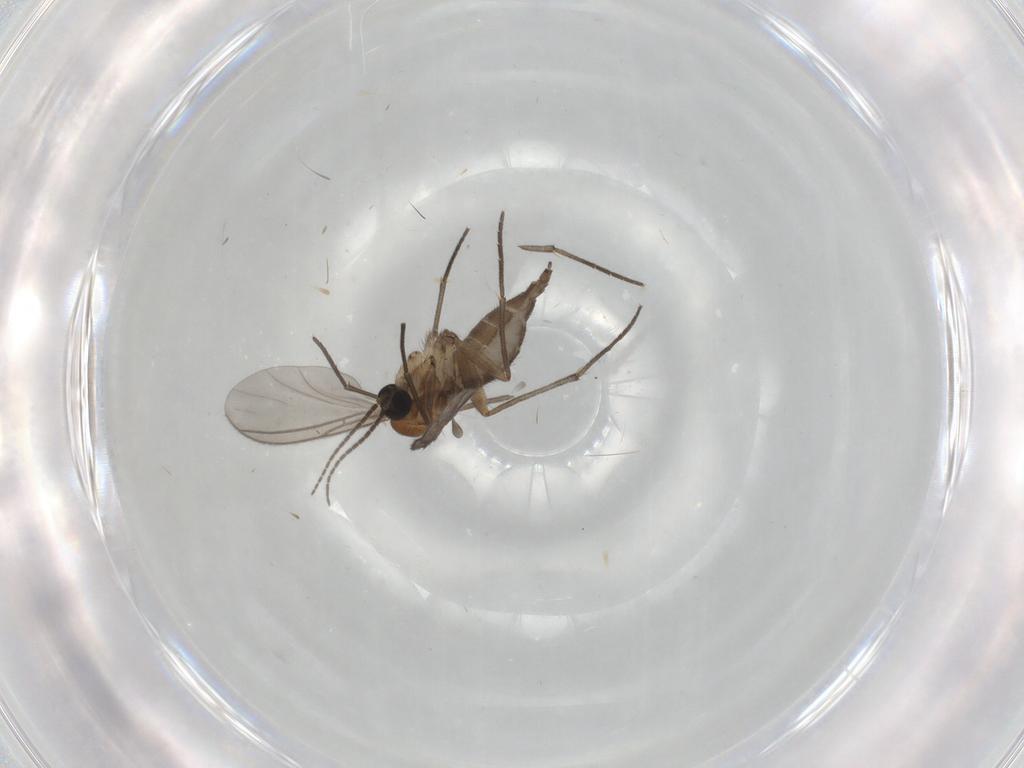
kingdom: Animalia
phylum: Arthropoda
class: Insecta
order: Diptera
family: Sciaridae
